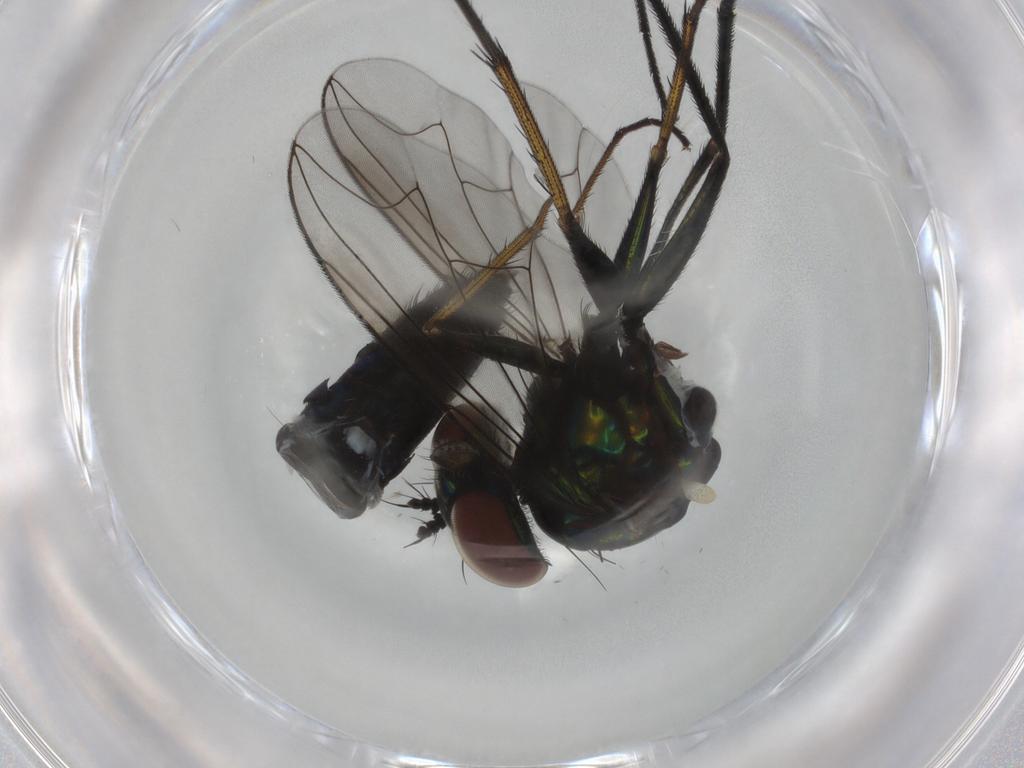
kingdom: Animalia
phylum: Arthropoda
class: Insecta
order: Diptera
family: Dolichopodidae
